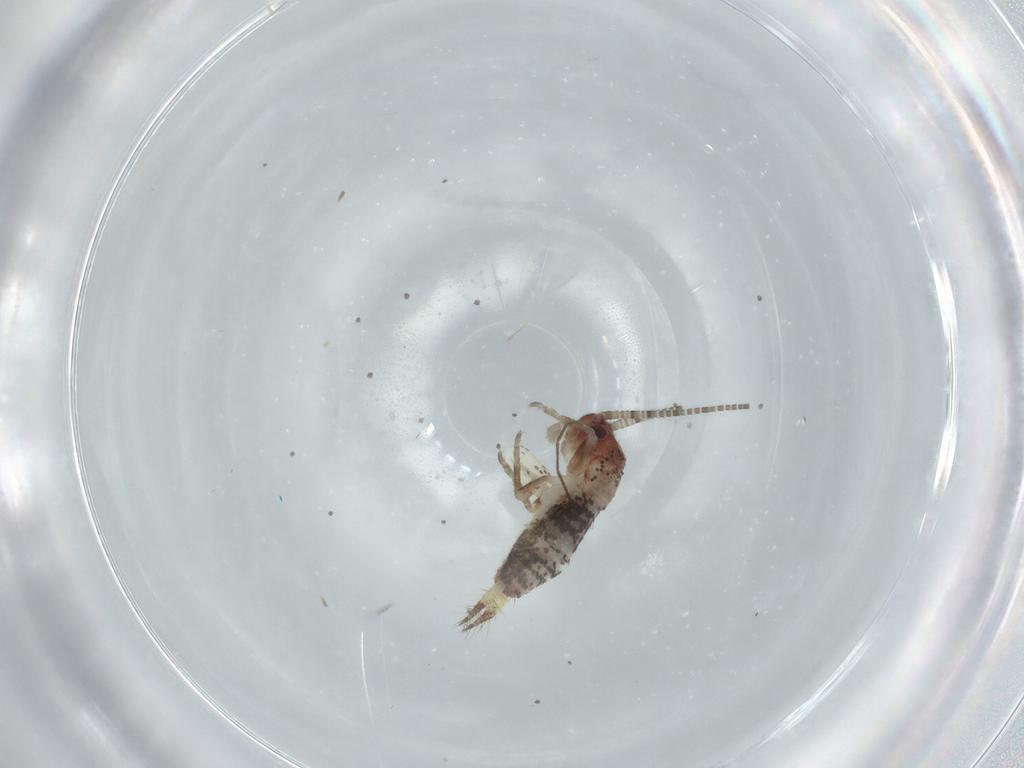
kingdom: Animalia
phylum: Arthropoda
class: Insecta
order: Orthoptera
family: Mogoplistidae
